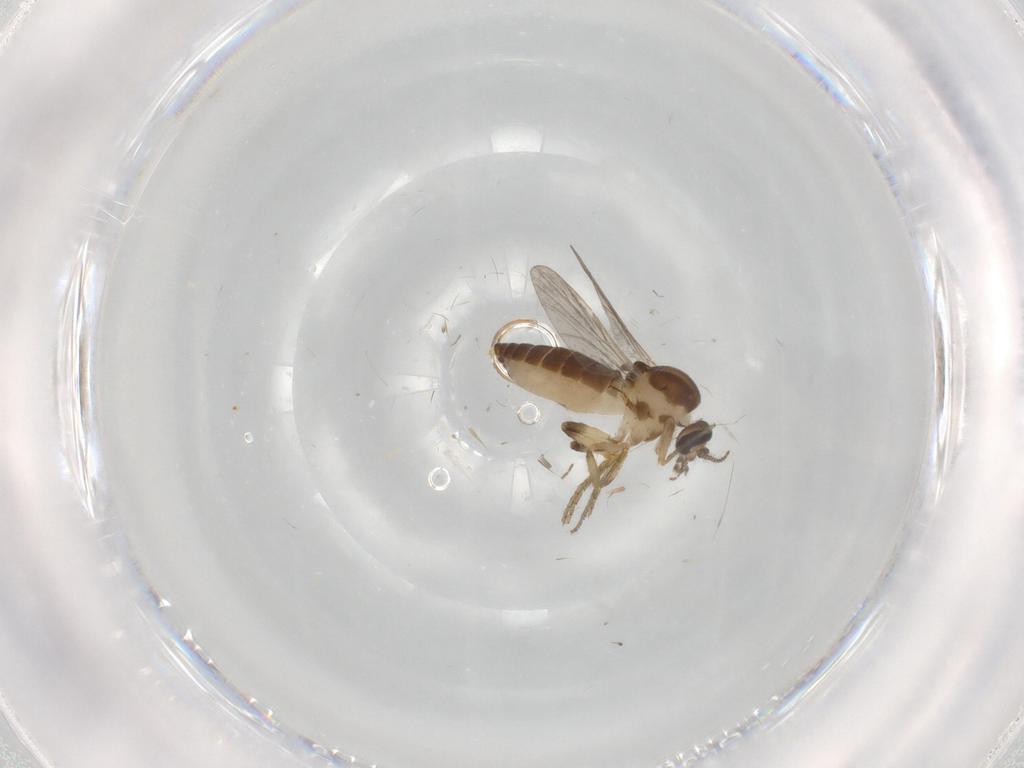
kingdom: Animalia
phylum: Arthropoda
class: Insecta
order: Diptera
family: Ceratopogonidae
